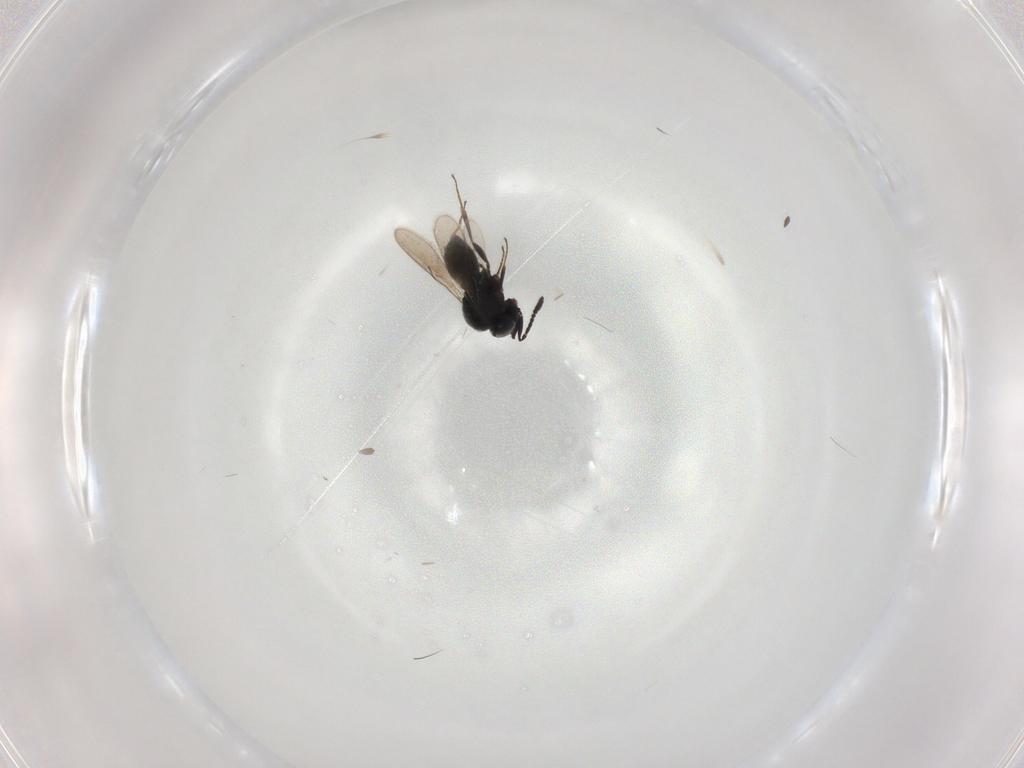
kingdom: Animalia
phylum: Arthropoda
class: Insecta
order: Hymenoptera
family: Scelionidae
